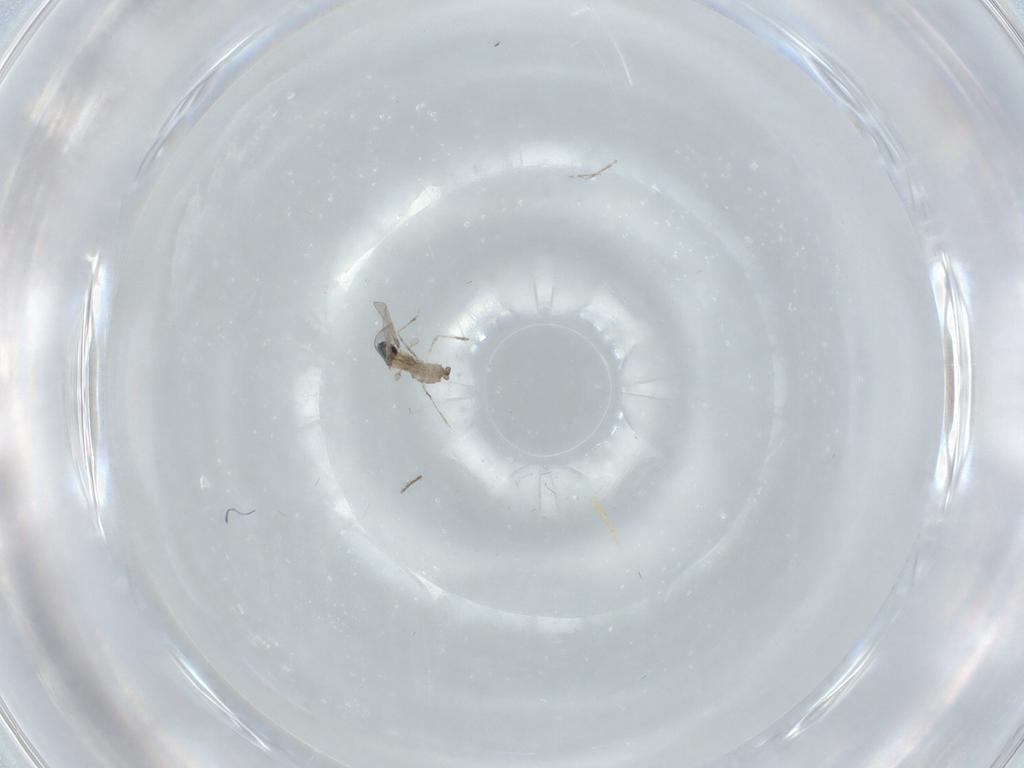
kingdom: Animalia
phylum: Arthropoda
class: Insecta
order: Diptera
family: Cecidomyiidae
